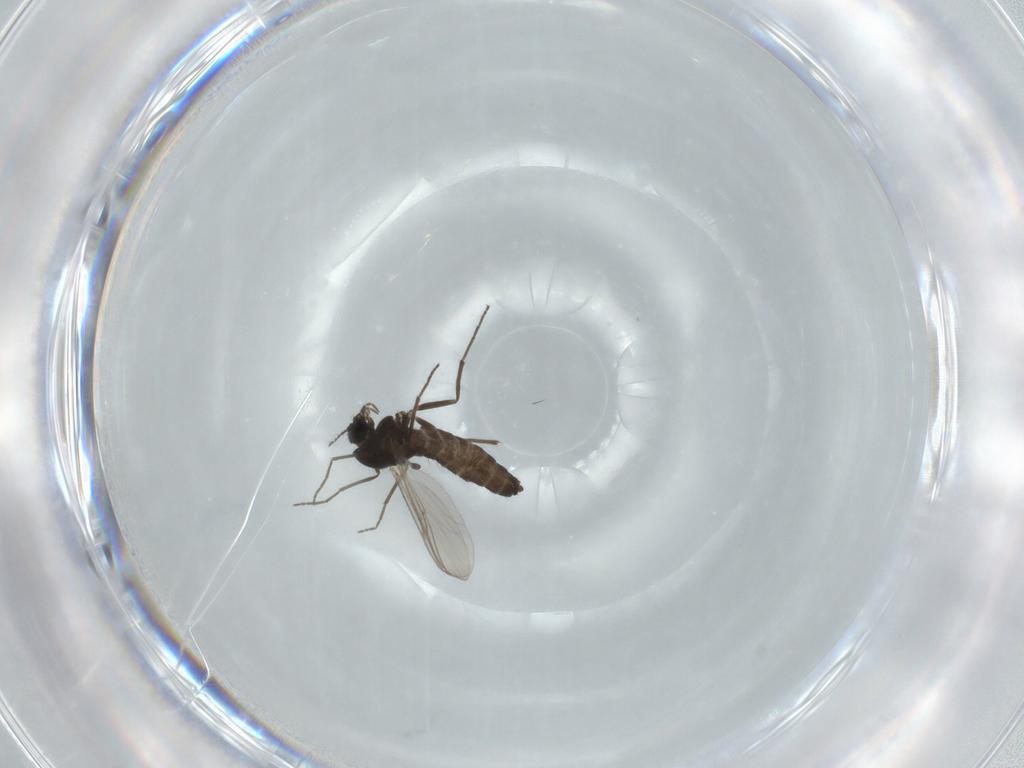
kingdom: Animalia
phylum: Arthropoda
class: Insecta
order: Diptera
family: Chironomidae
